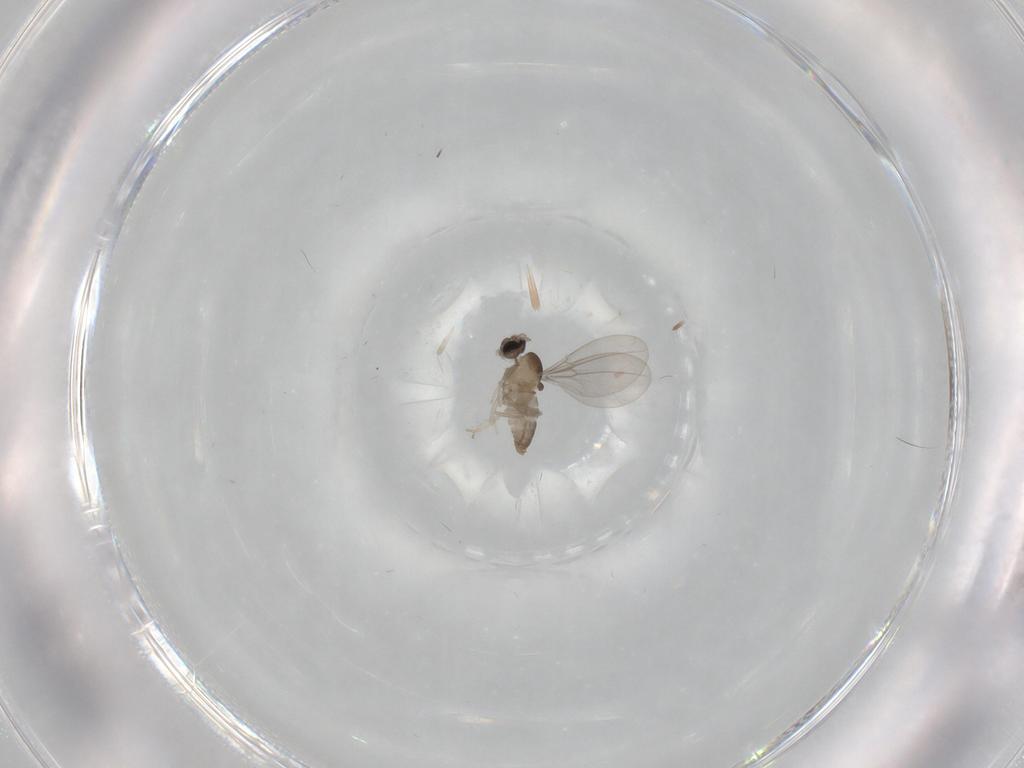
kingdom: Animalia
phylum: Arthropoda
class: Insecta
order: Diptera
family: Cecidomyiidae
